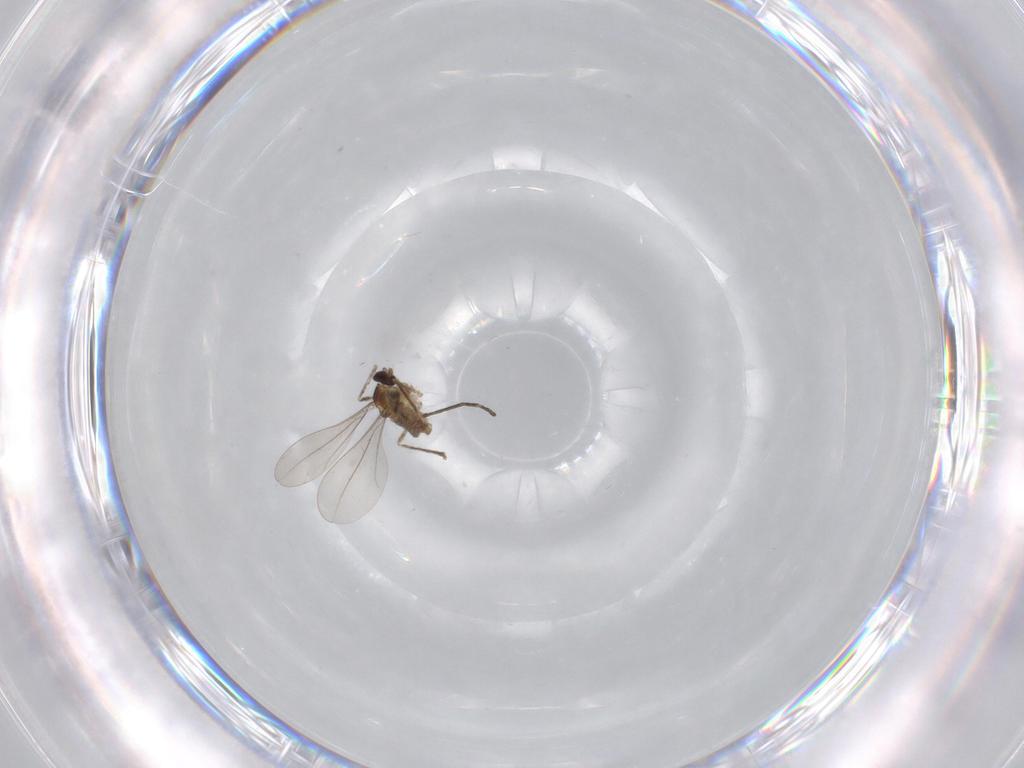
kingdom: Animalia
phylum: Arthropoda
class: Insecta
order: Diptera
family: Cecidomyiidae
